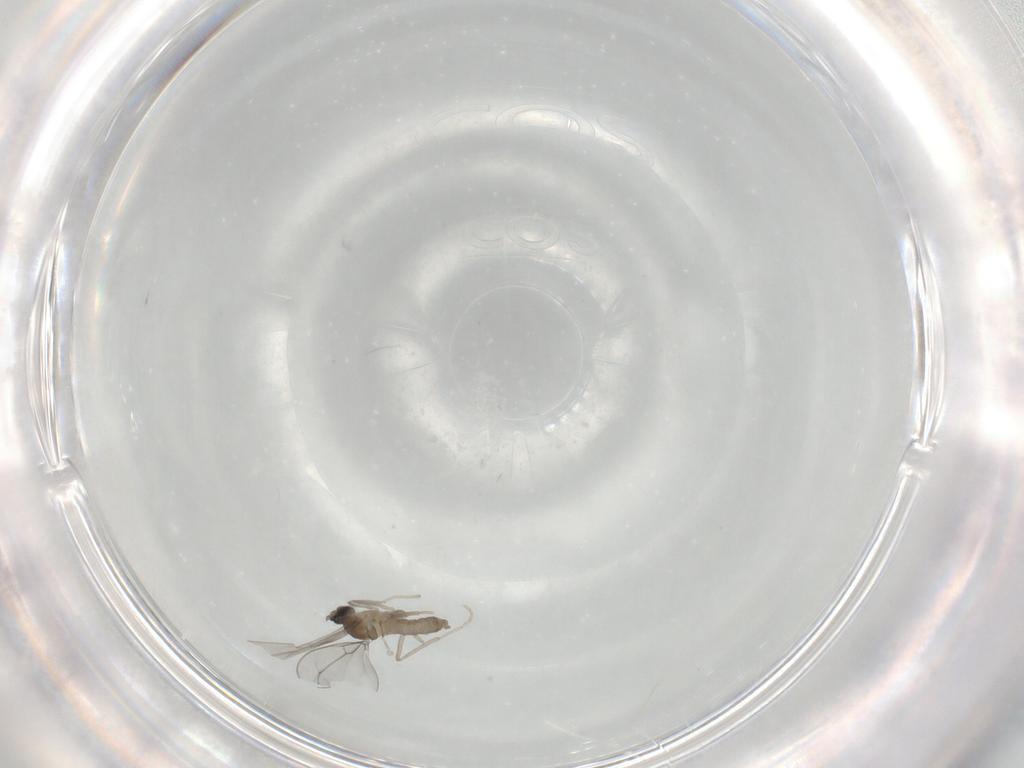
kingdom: Animalia
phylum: Arthropoda
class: Insecta
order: Diptera
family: Cecidomyiidae
